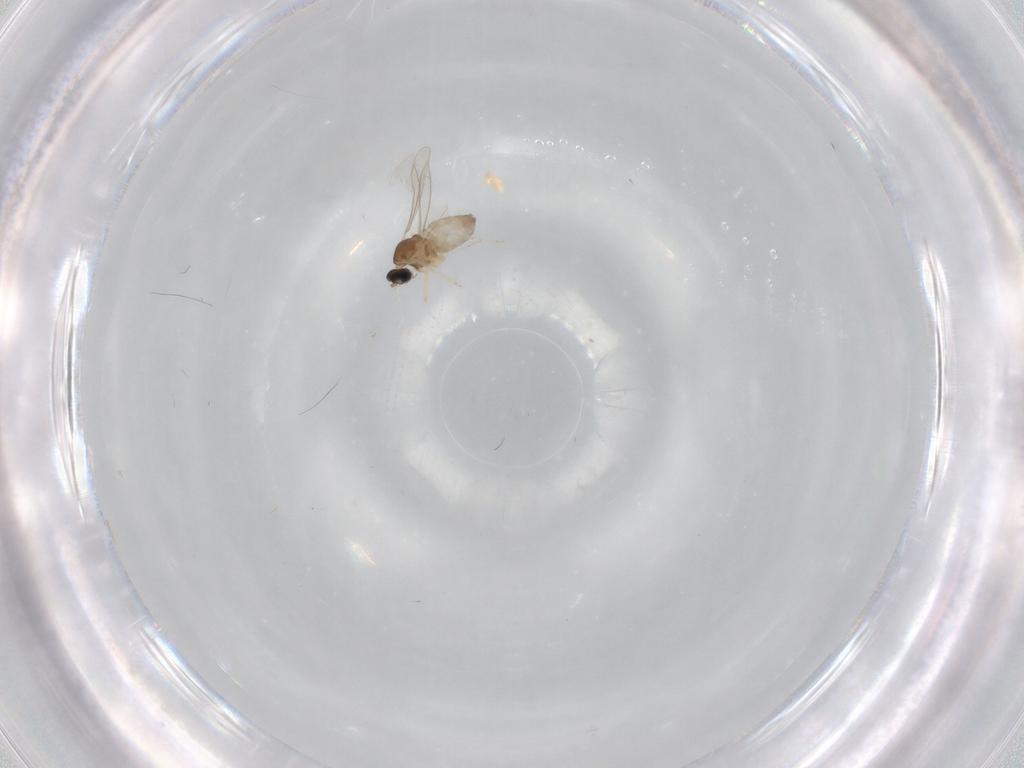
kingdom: Animalia
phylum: Arthropoda
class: Insecta
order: Diptera
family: Cecidomyiidae
